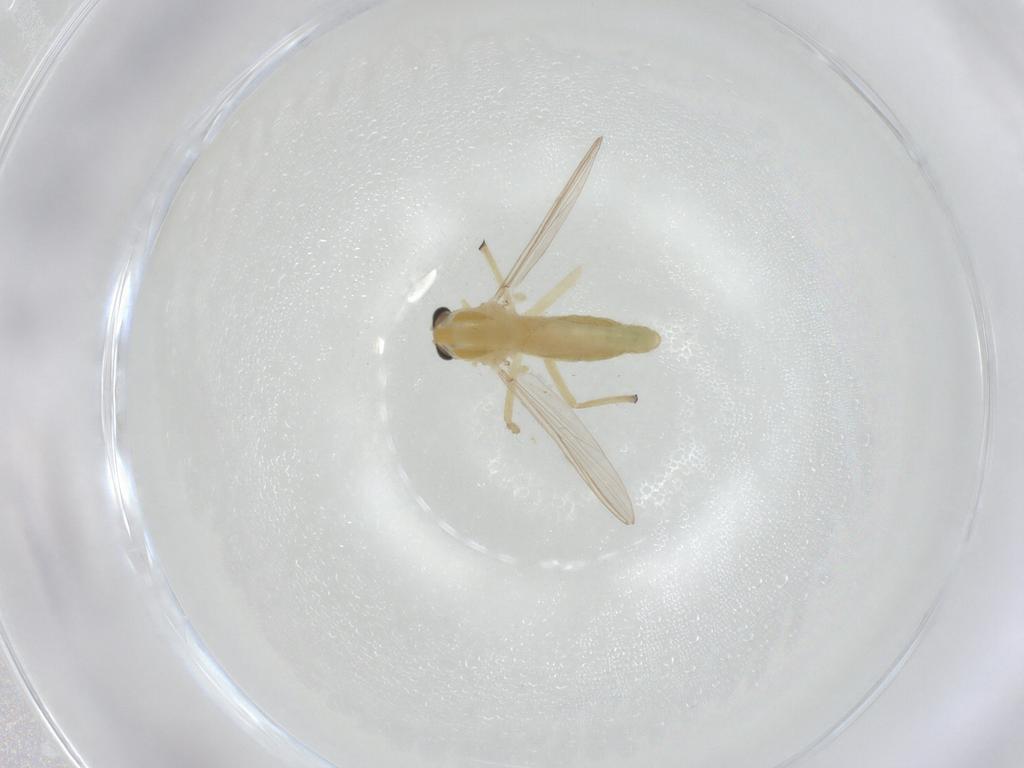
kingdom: Animalia
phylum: Arthropoda
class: Insecta
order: Diptera
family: Chironomidae
